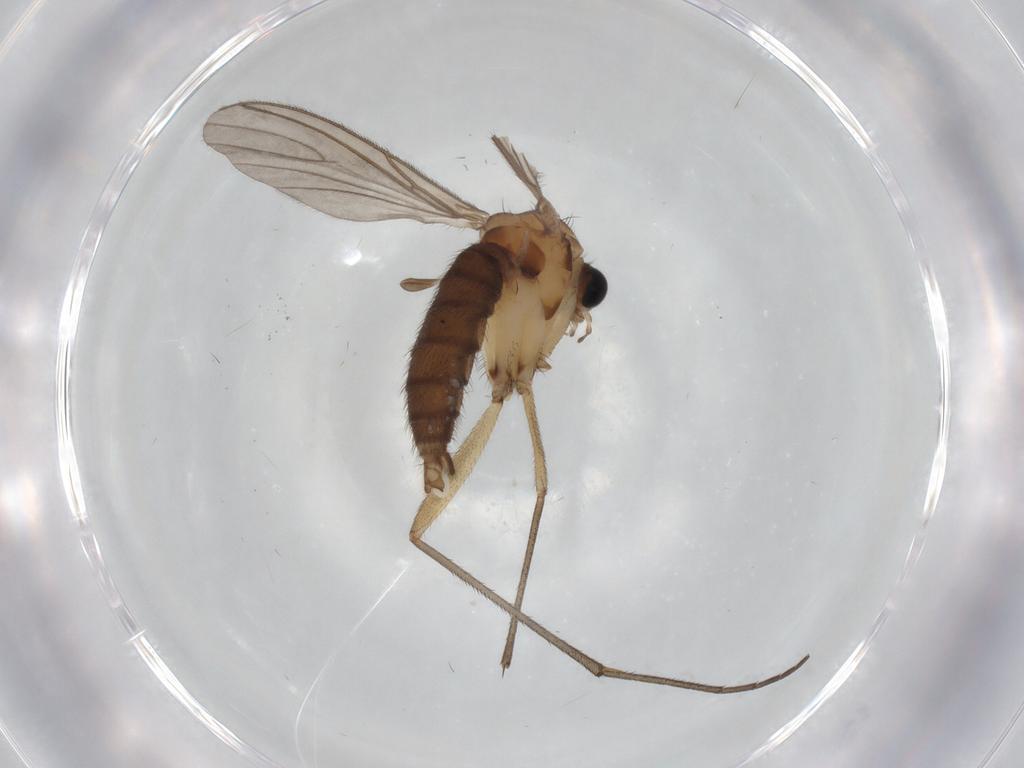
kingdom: Animalia
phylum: Arthropoda
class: Insecta
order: Diptera
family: Sciaridae
